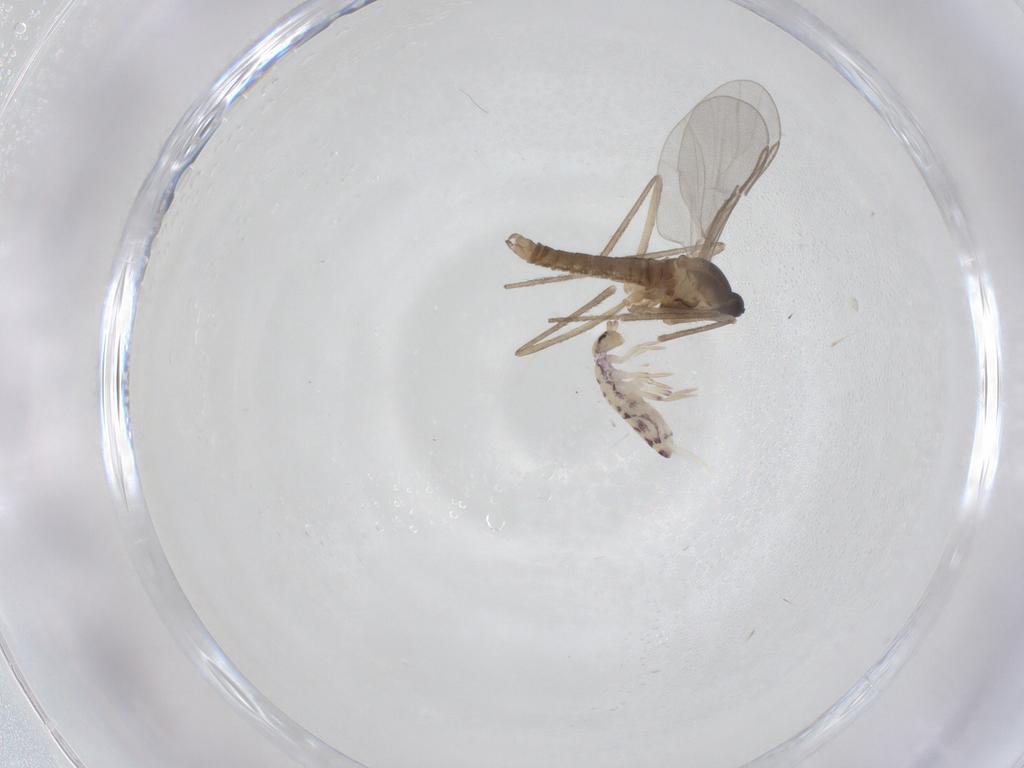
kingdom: Animalia
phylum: Arthropoda
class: Collembola
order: Entomobryomorpha
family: Entomobryidae
